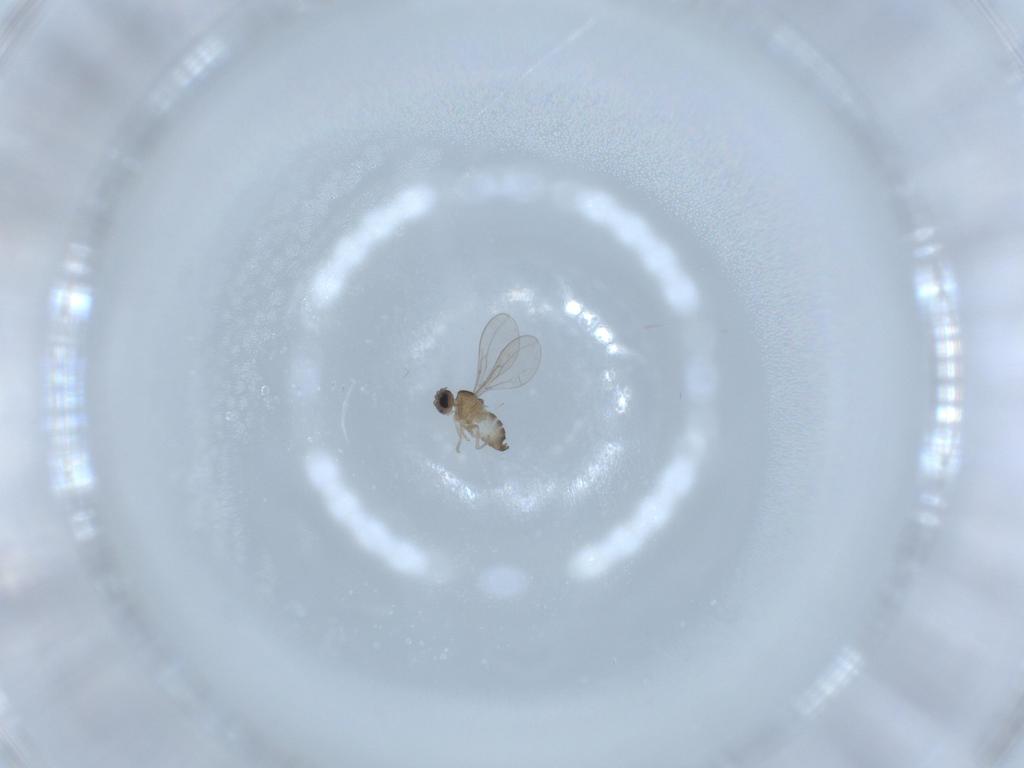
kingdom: Animalia
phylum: Arthropoda
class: Insecta
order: Diptera
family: Cecidomyiidae
